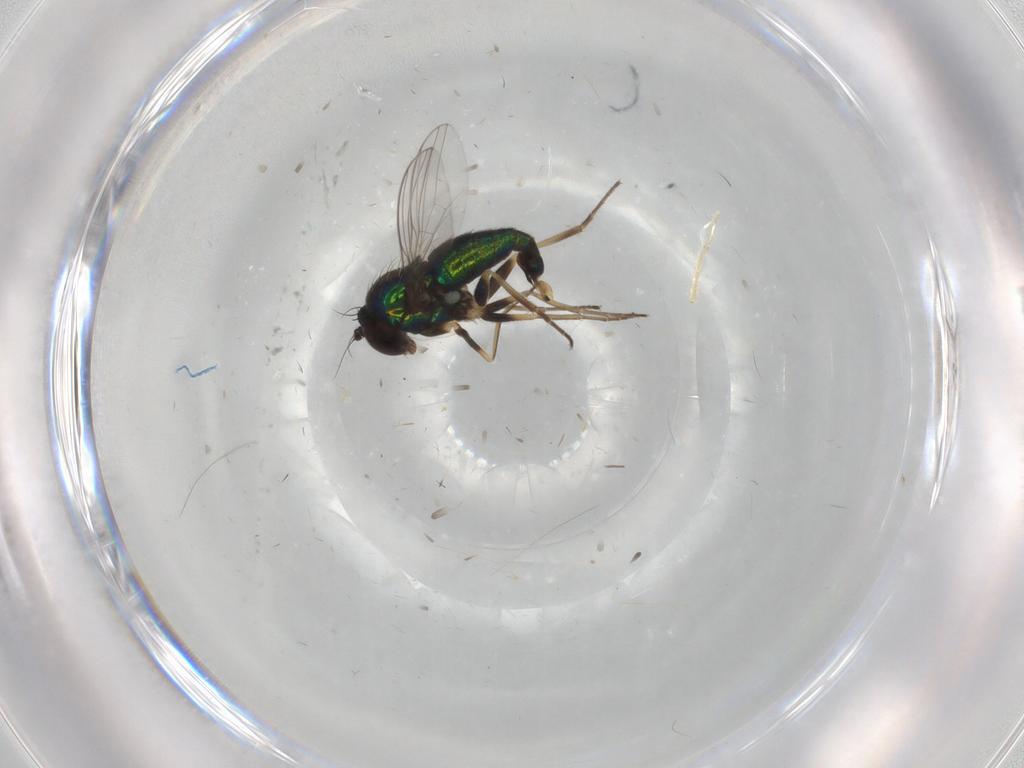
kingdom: Animalia
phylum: Arthropoda
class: Insecta
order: Diptera
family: Dolichopodidae
